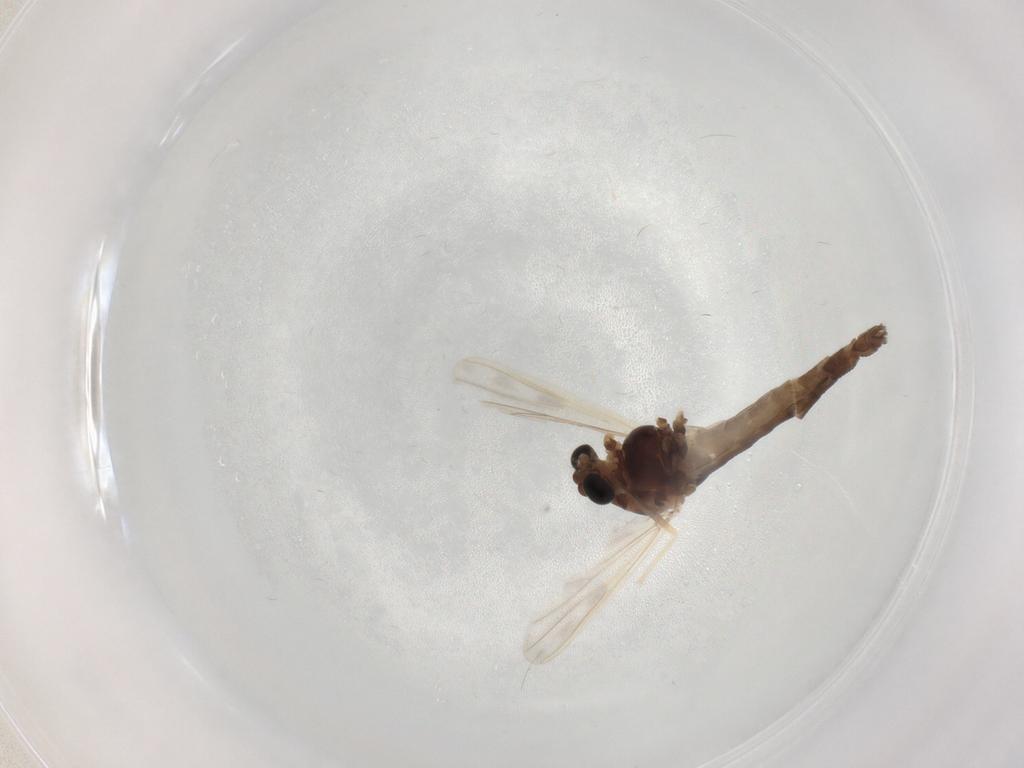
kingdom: Animalia
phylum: Arthropoda
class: Insecta
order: Diptera
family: Chironomidae
